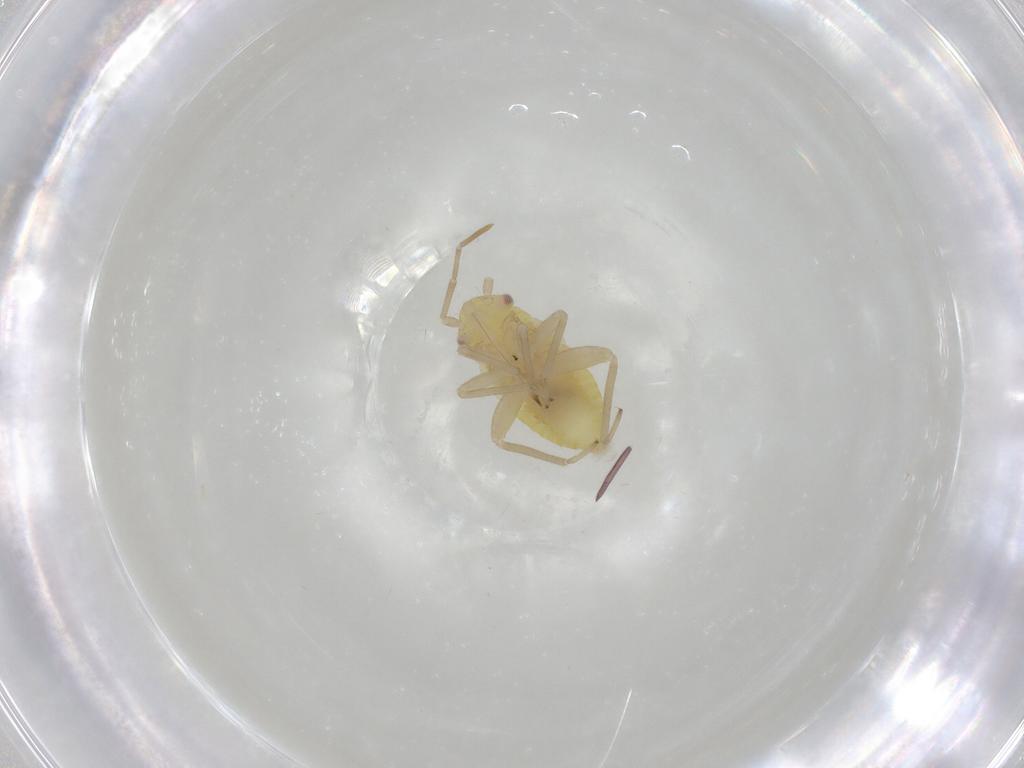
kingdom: Animalia
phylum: Arthropoda
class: Insecta
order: Hemiptera
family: Miridae
